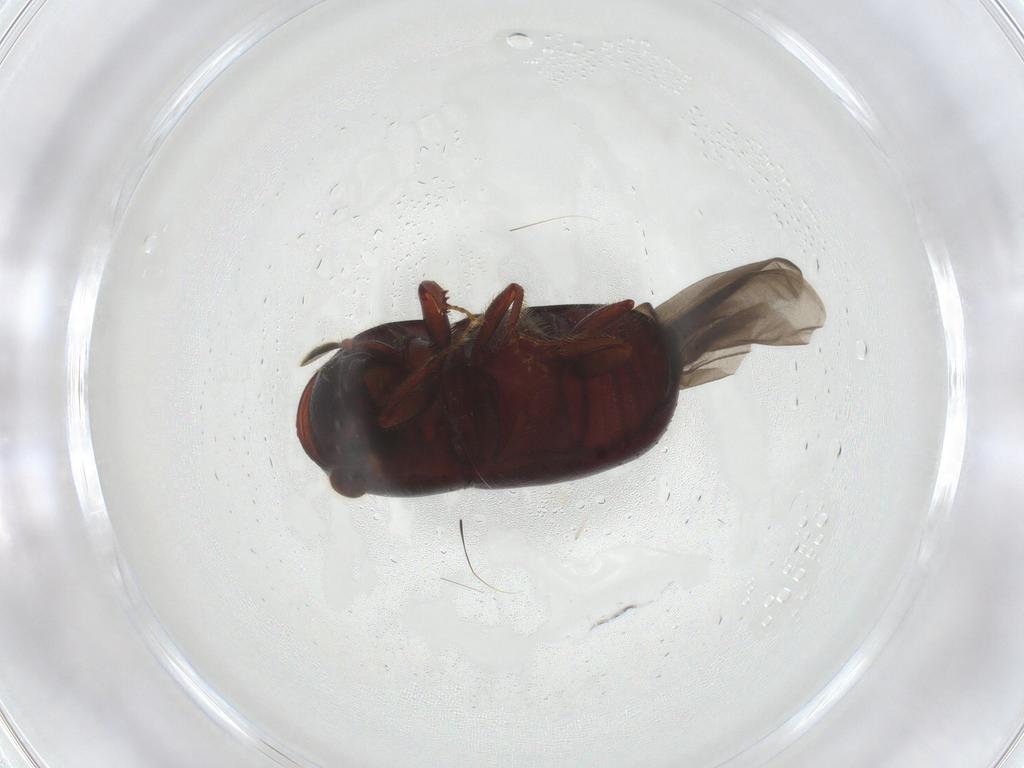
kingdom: Animalia
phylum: Arthropoda
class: Insecta
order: Coleoptera
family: Curculionidae
